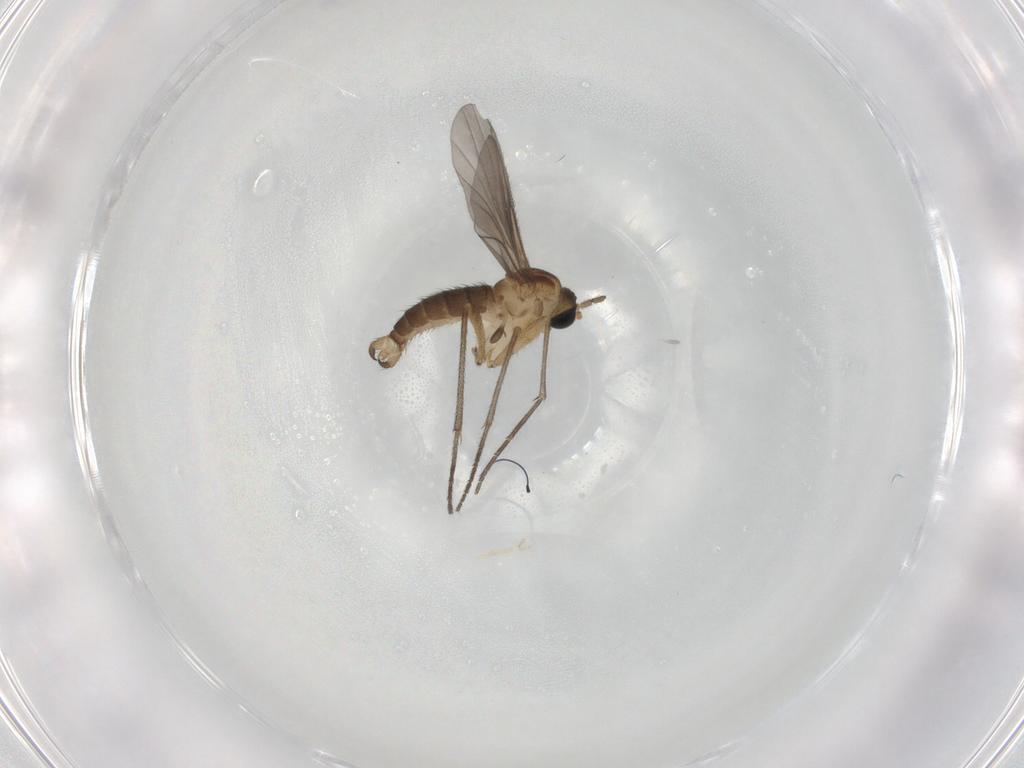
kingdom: Animalia
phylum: Arthropoda
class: Insecta
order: Diptera
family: Sciaridae
